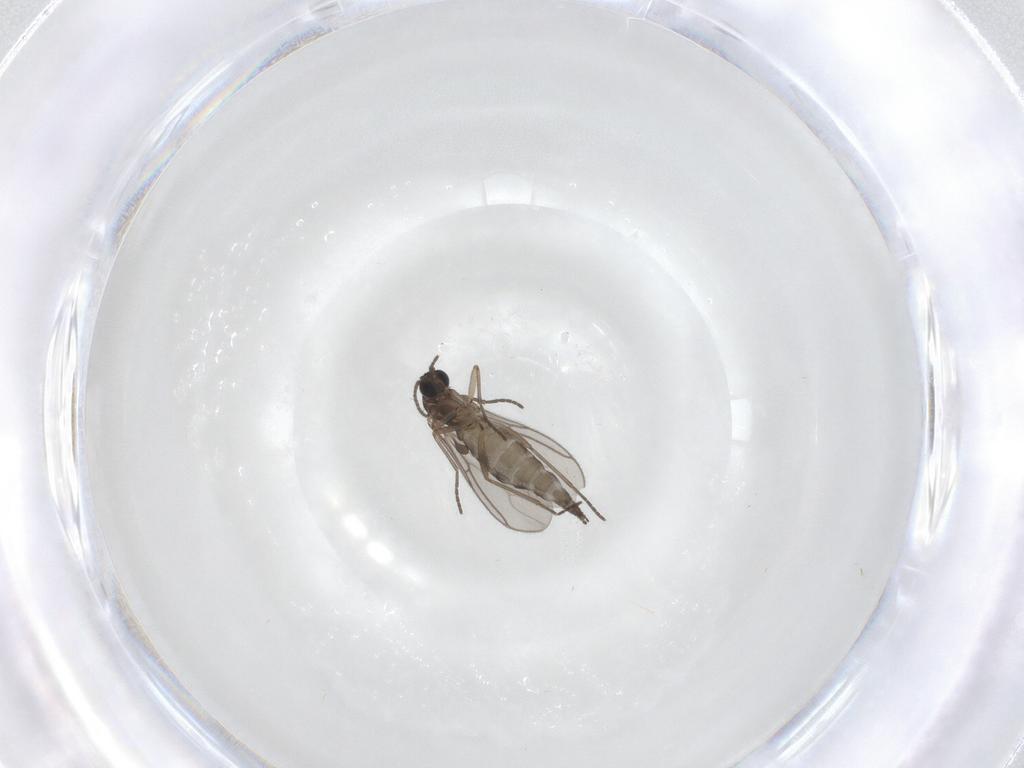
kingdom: Animalia
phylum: Arthropoda
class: Insecta
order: Diptera
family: Sciaridae
